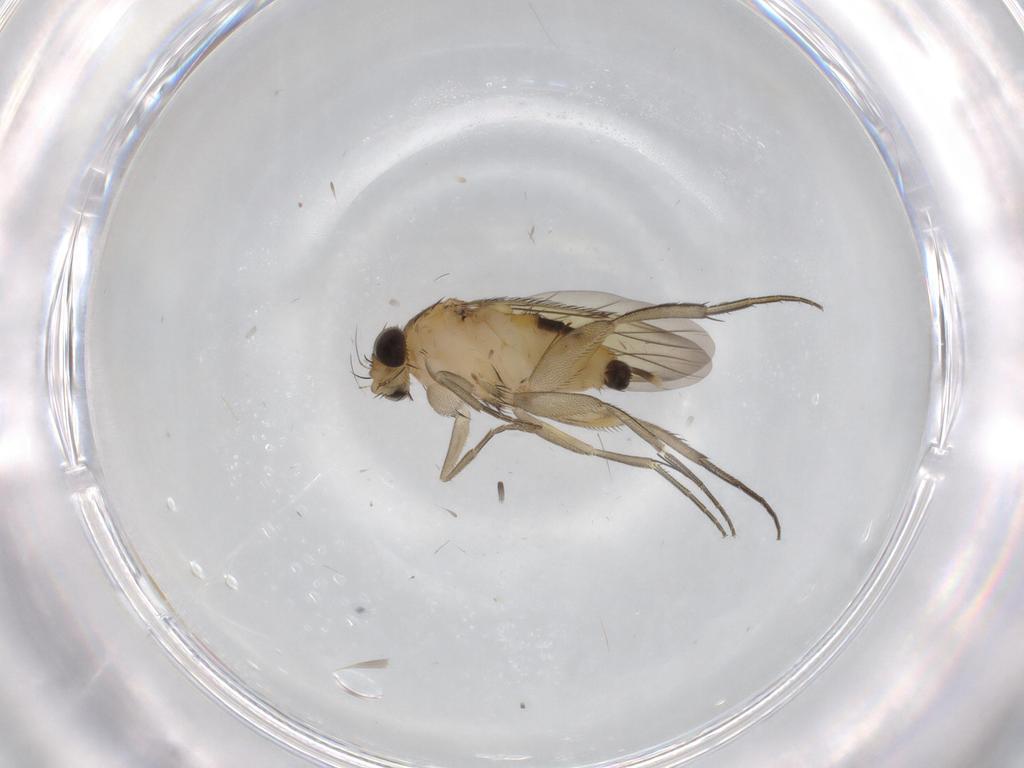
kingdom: Animalia
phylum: Arthropoda
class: Insecta
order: Diptera
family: Phoridae
